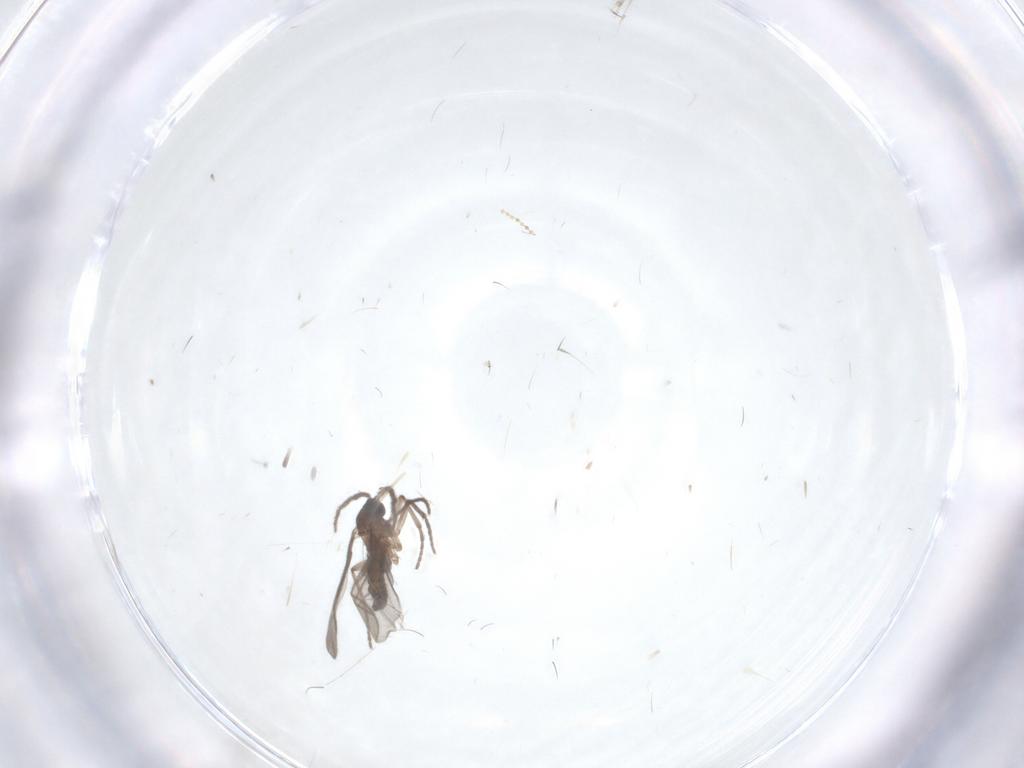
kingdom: Animalia
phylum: Arthropoda
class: Insecta
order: Diptera
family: Sciaridae
